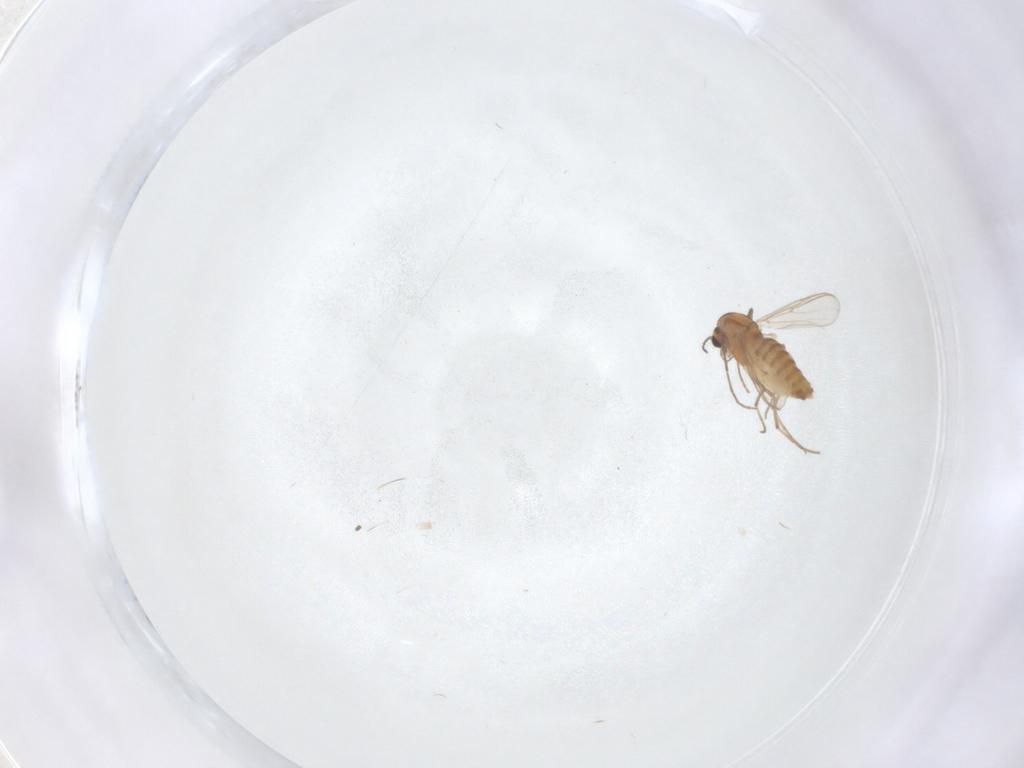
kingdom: Animalia
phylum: Arthropoda
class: Insecta
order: Diptera
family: Chironomidae
